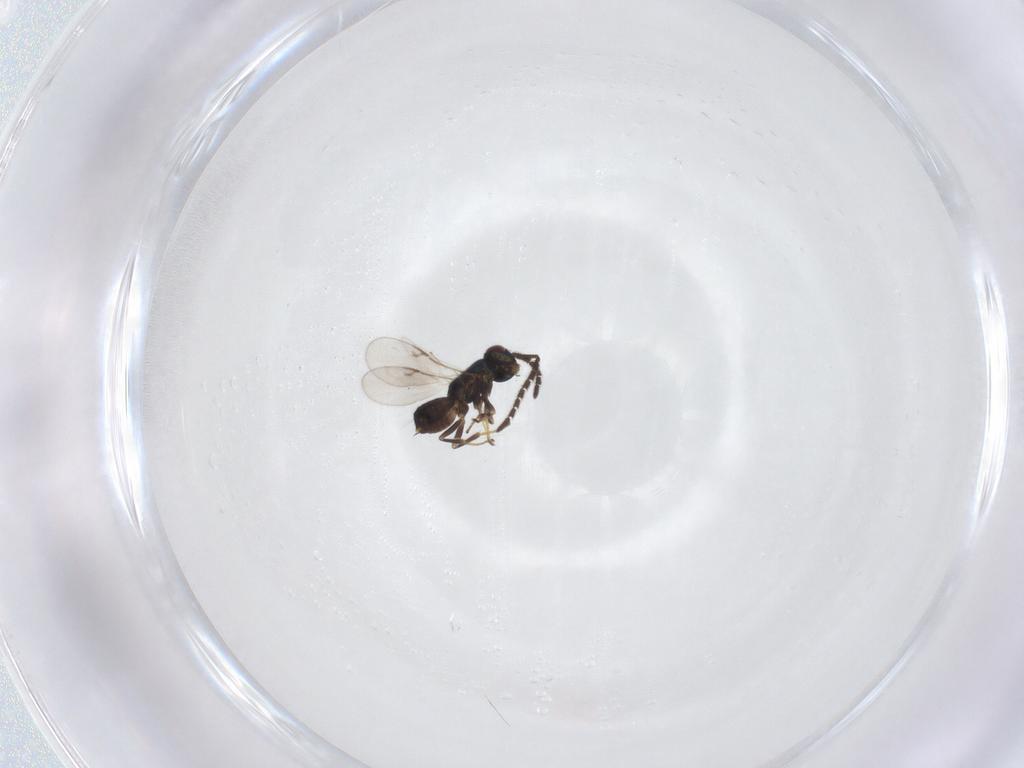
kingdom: Animalia
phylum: Arthropoda
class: Insecta
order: Hymenoptera
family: Encyrtidae
